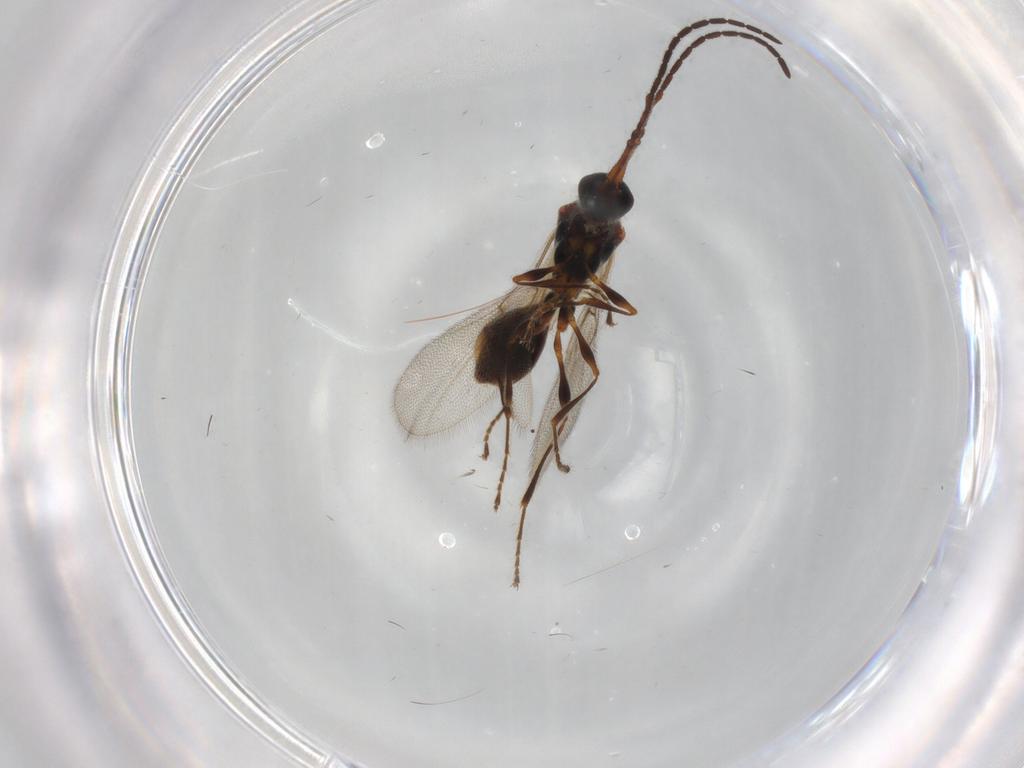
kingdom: Animalia
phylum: Arthropoda
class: Insecta
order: Hymenoptera
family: Diapriidae
